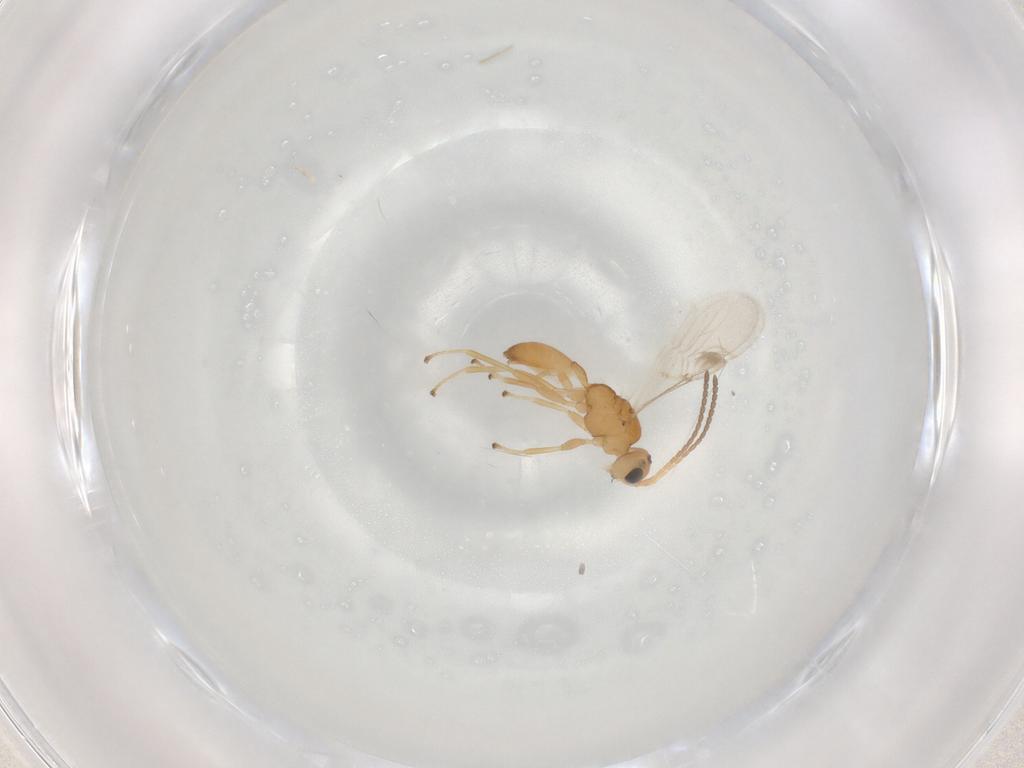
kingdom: Animalia
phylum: Arthropoda
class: Insecta
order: Hymenoptera
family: Braconidae
